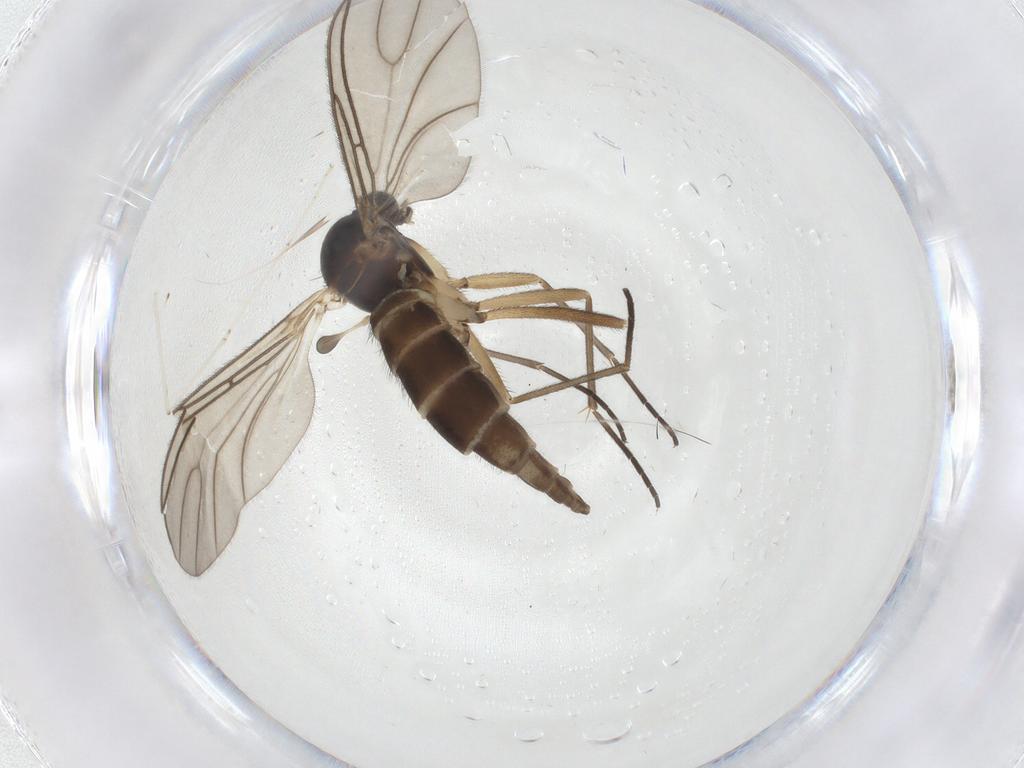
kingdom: Animalia
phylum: Arthropoda
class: Insecta
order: Diptera
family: Sciaridae
